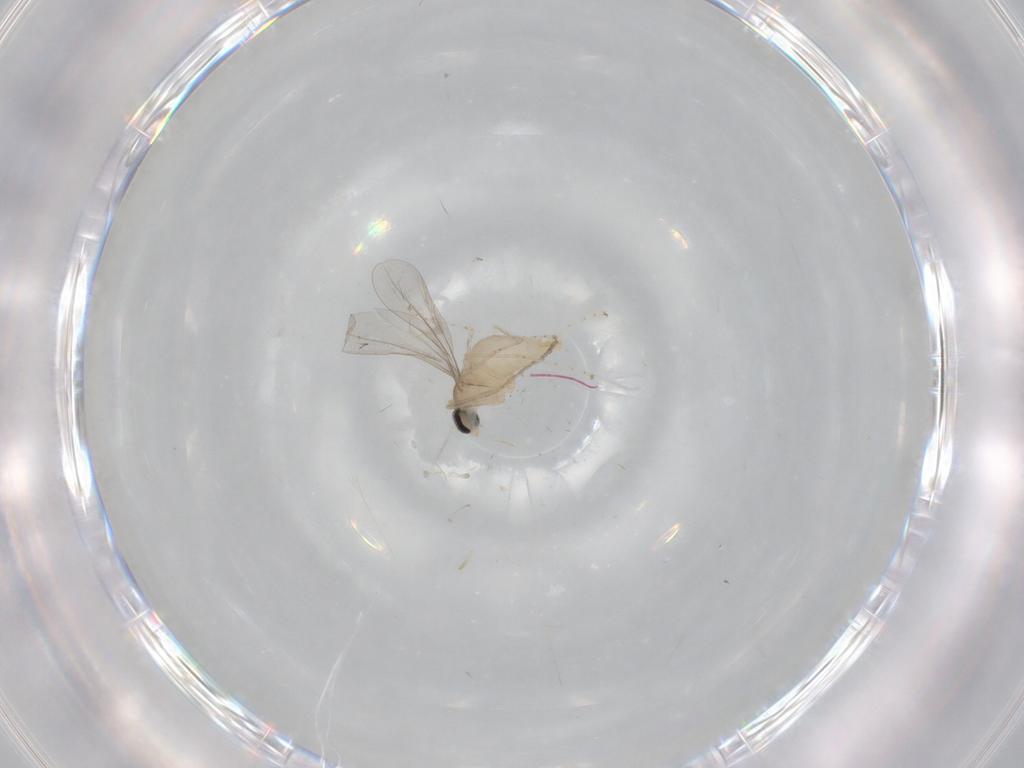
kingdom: Animalia
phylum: Arthropoda
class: Insecta
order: Diptera
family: Cecidomyiidae
